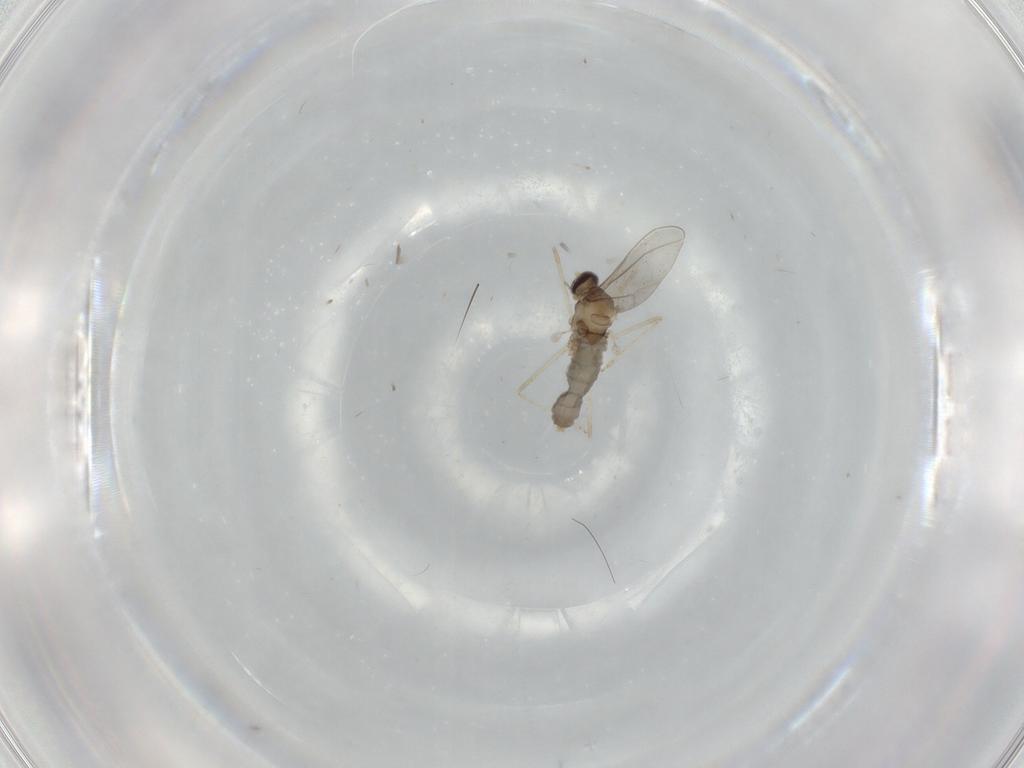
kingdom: Animalia
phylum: Arthropoda
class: Insecta
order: Diptera
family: Cecidomyiidae
